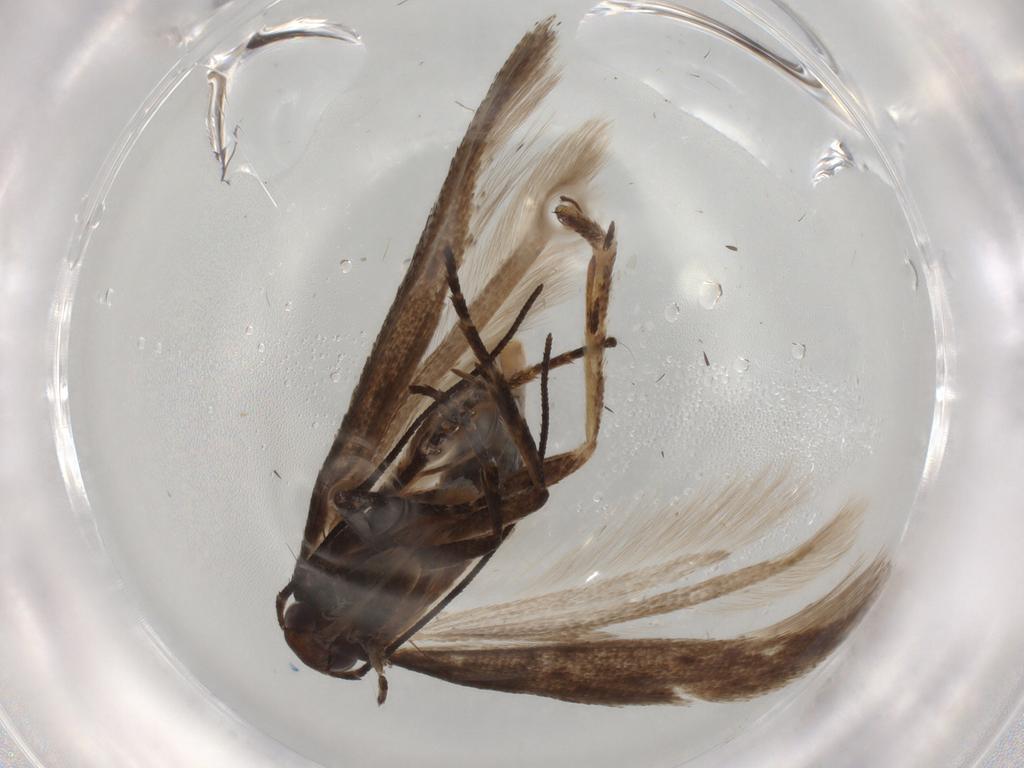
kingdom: Animalia
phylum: Arthropoda
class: Insecta
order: Lepidoptera
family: Gelechiidae
